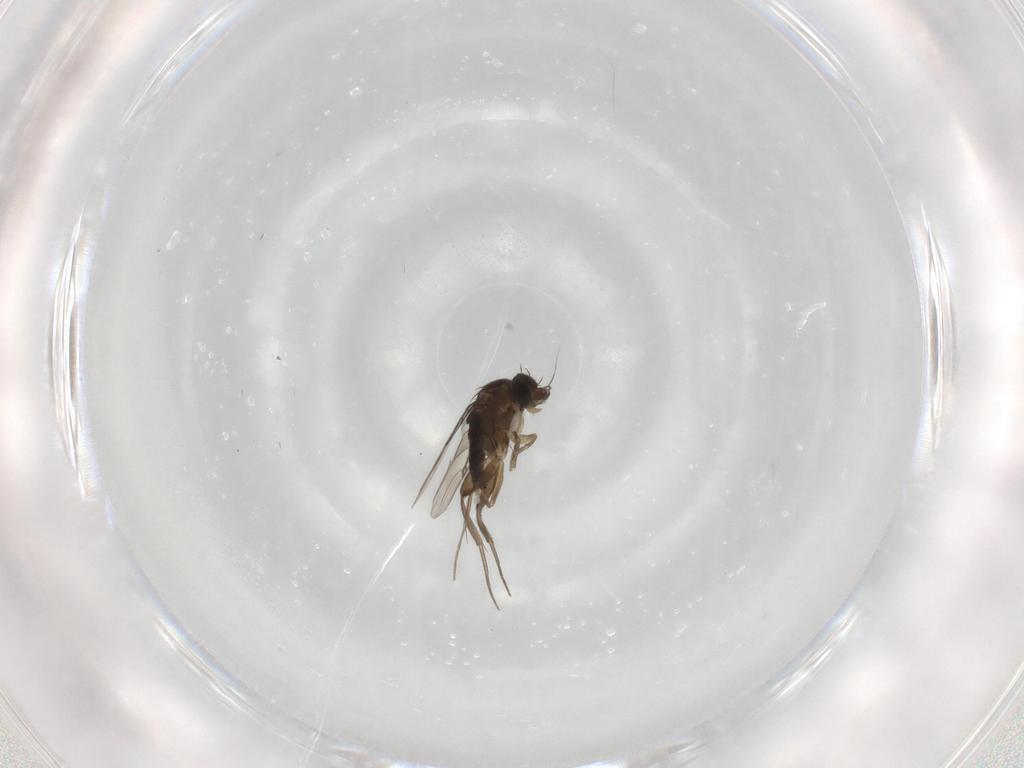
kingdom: Animalia
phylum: Arthropoda
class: Insecta
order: Diptera
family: Phoridae
